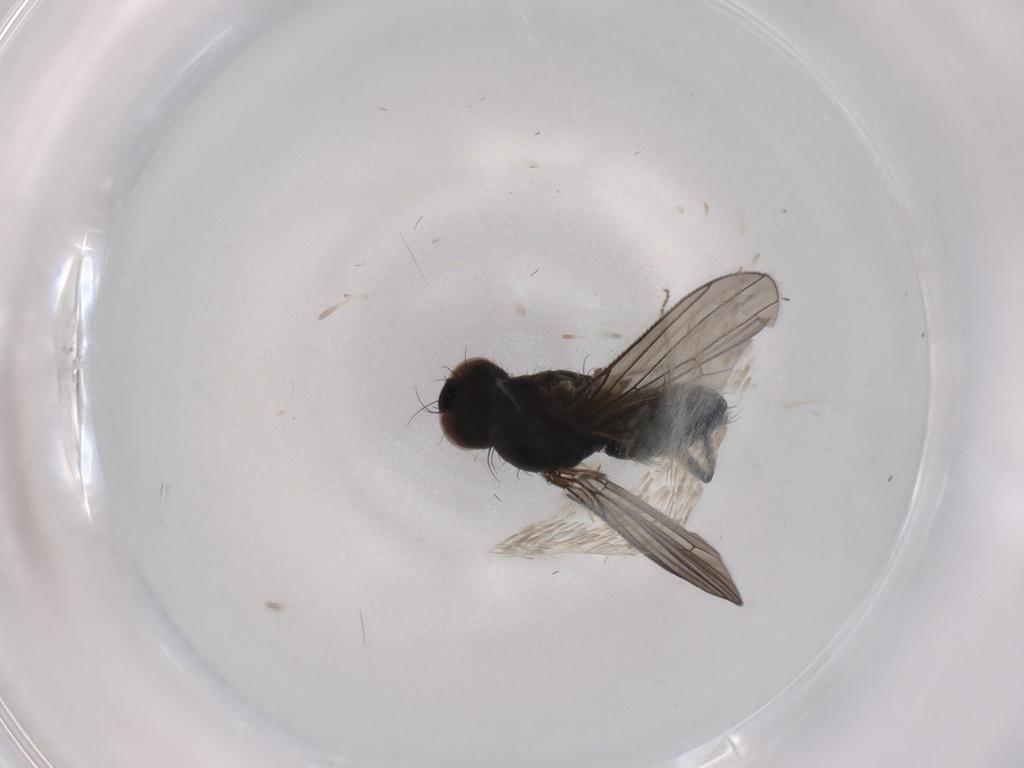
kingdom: Animalia
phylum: Arthropoda
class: Insecta
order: Diptera
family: Muscidae
